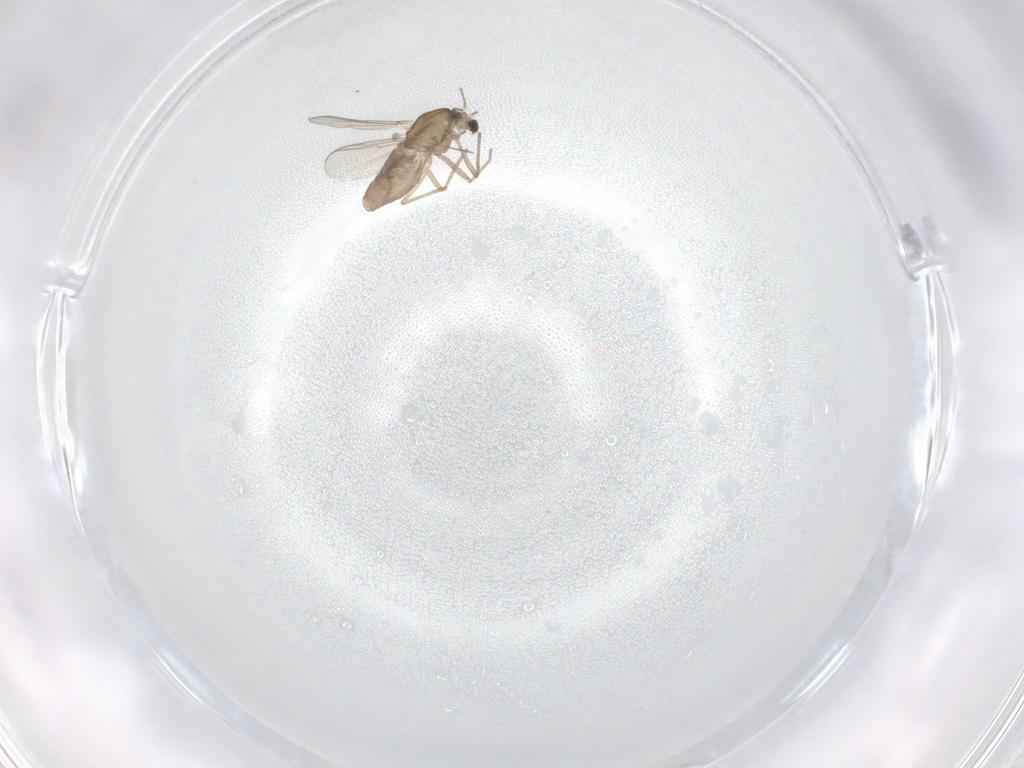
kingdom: Animalia
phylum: Arthropoda
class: Insecta
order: Diptera
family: Chironomidae
